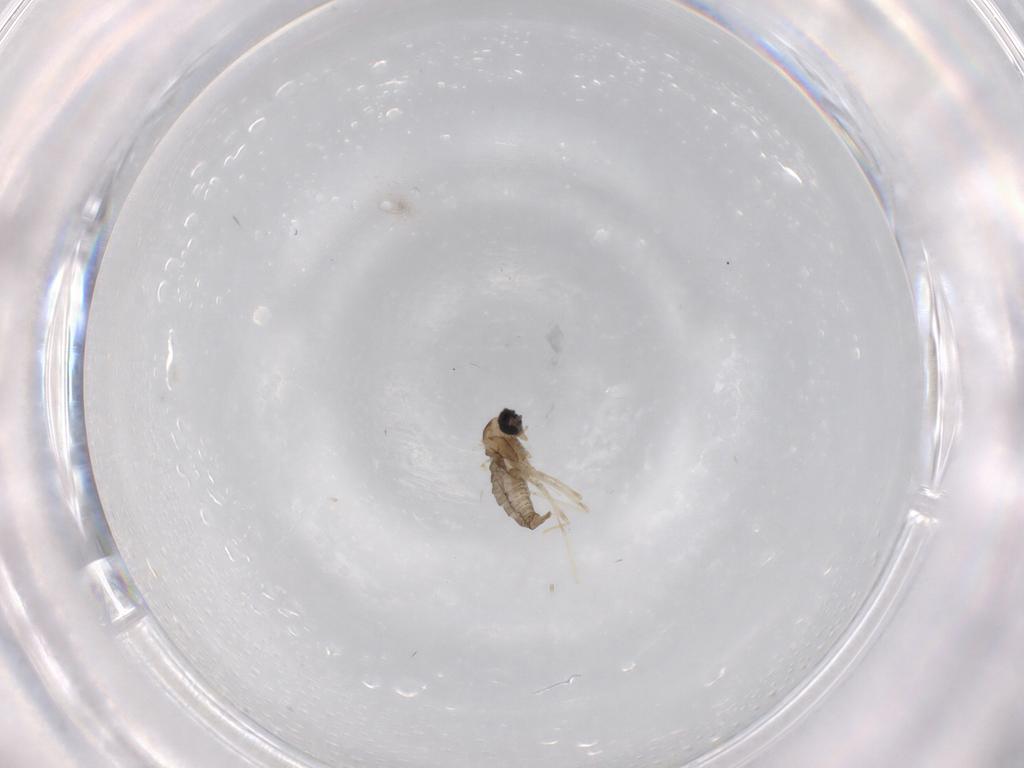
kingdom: Animalia
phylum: Arthropoda
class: Insecta
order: Diptera
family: Cecidomyiidae
